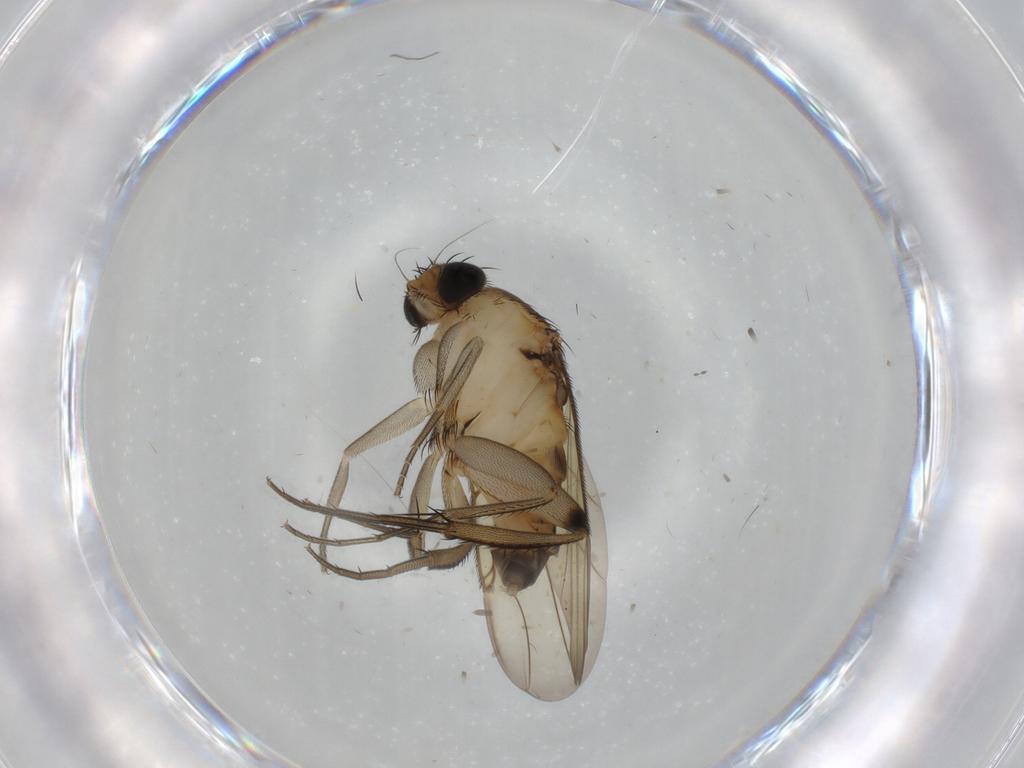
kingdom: Animalia
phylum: Arthropoda
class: Insecta
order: Diptera
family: Phoridae
